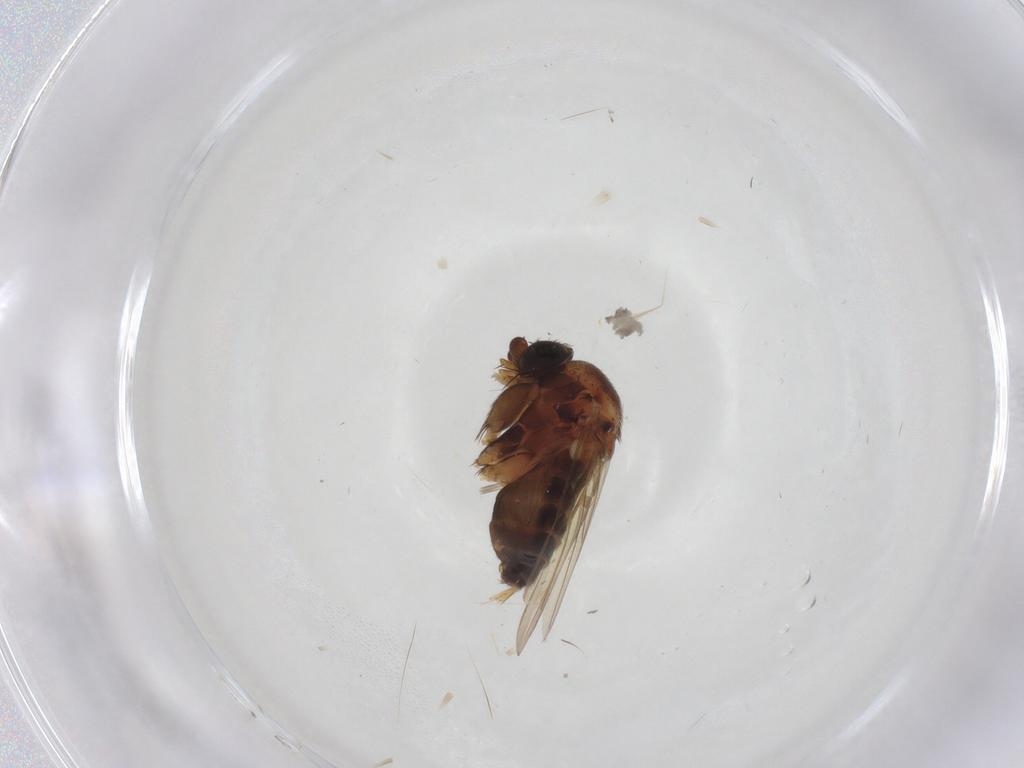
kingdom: Animalia
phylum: Arthropoda
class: Insecta
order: Diptera
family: Phoridae
